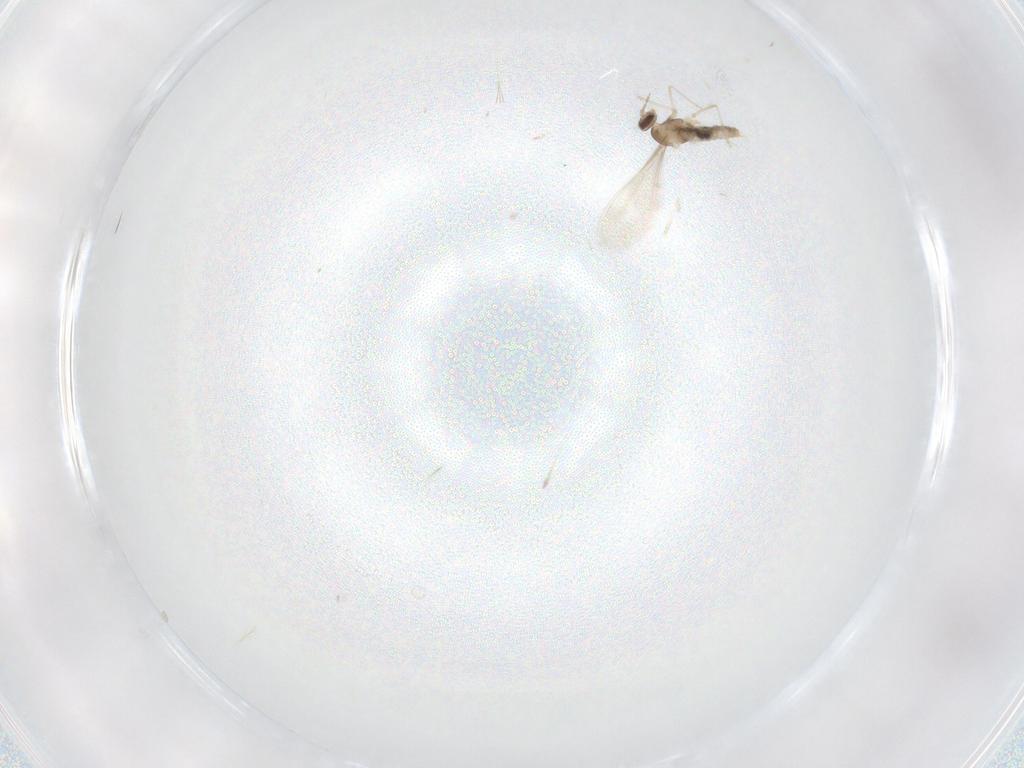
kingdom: Animalia
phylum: Arthropoda
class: Insecta
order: Diptera
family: Cecidomyiidae
